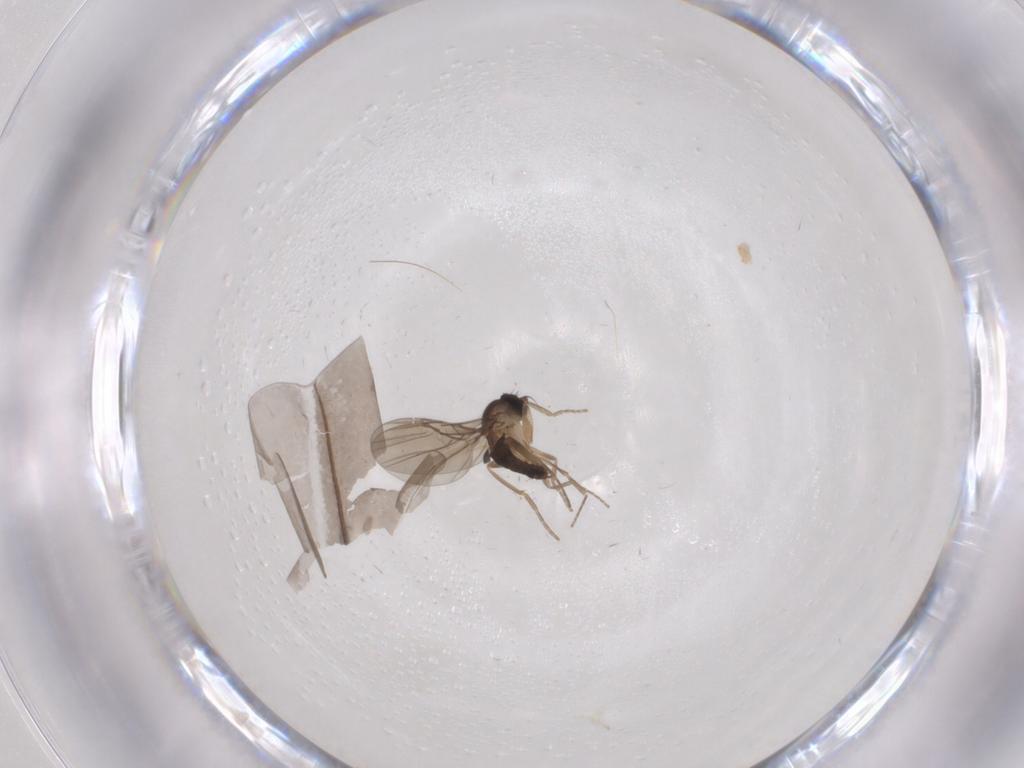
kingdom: Animalia
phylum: Arthropoda
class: Insecta
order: Diptera
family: Phoridae
